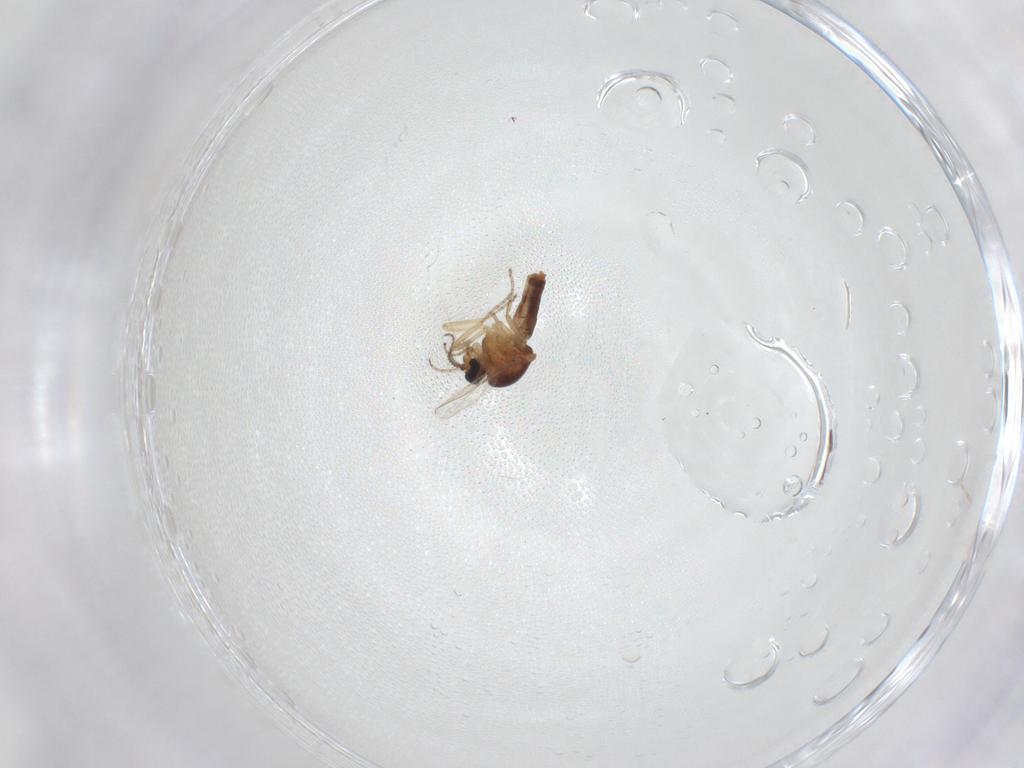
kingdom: Animalia
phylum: Arthropoda
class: Insecta
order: Diptera
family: Ceratopogonidae
